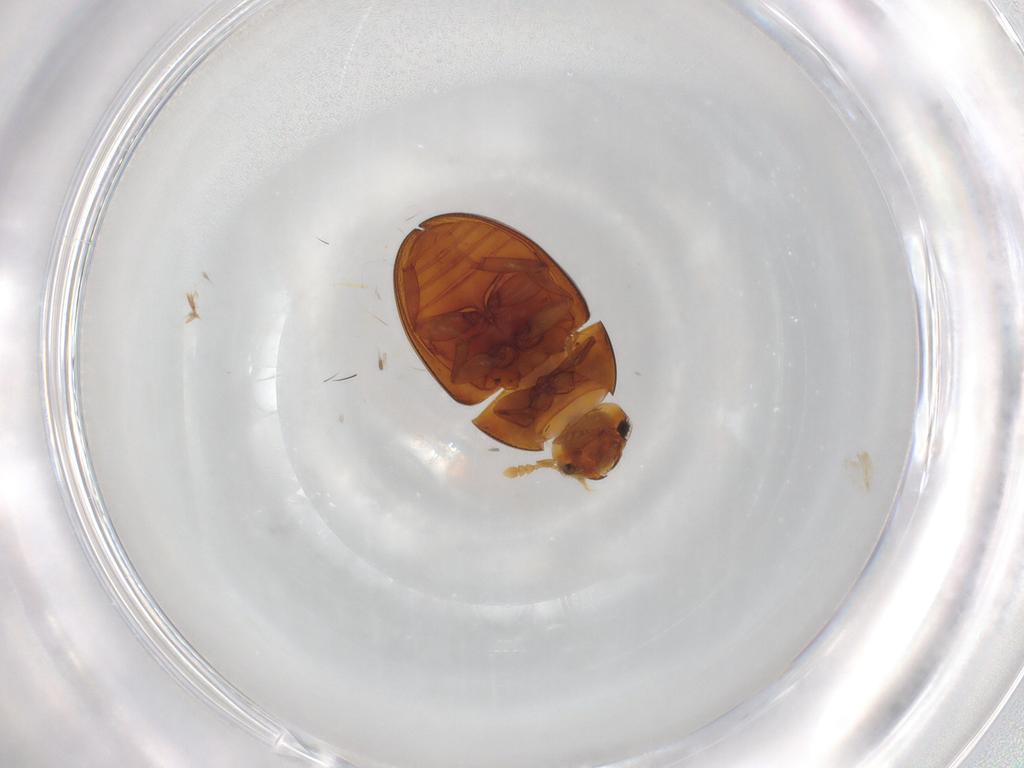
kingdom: Animalia
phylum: Arthropoda
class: Insecta
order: Coleoptera
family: Phalacridae
